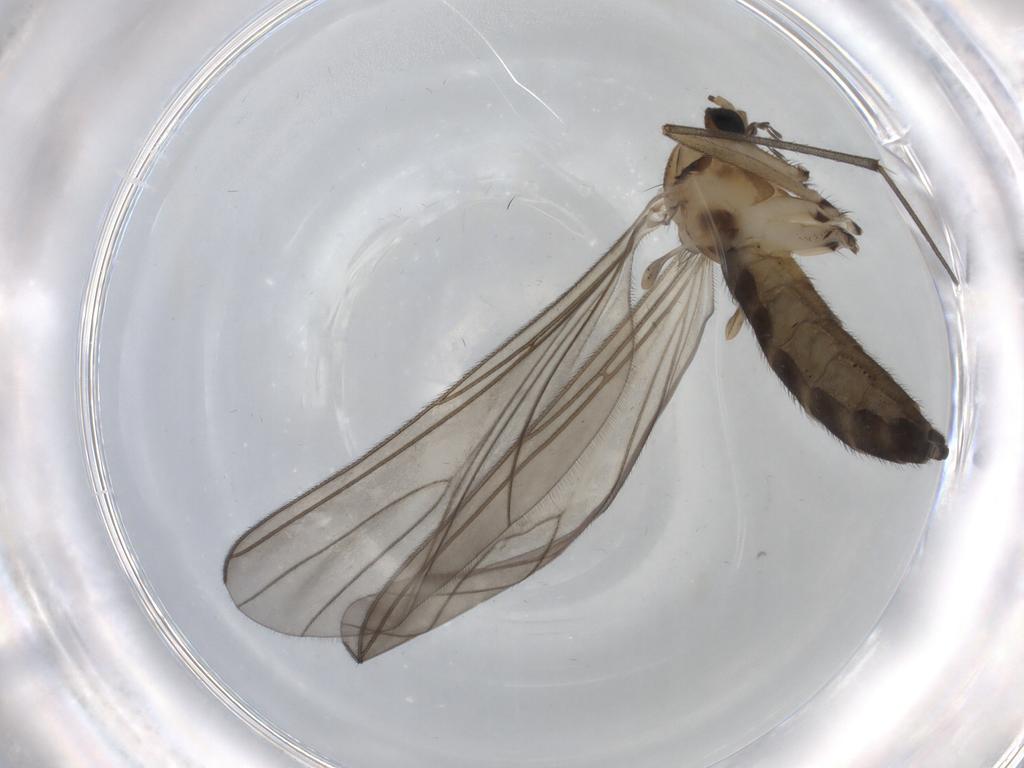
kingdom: Animalia
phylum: Arthropoda
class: Insecta
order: Diptera
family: Sciaridae
